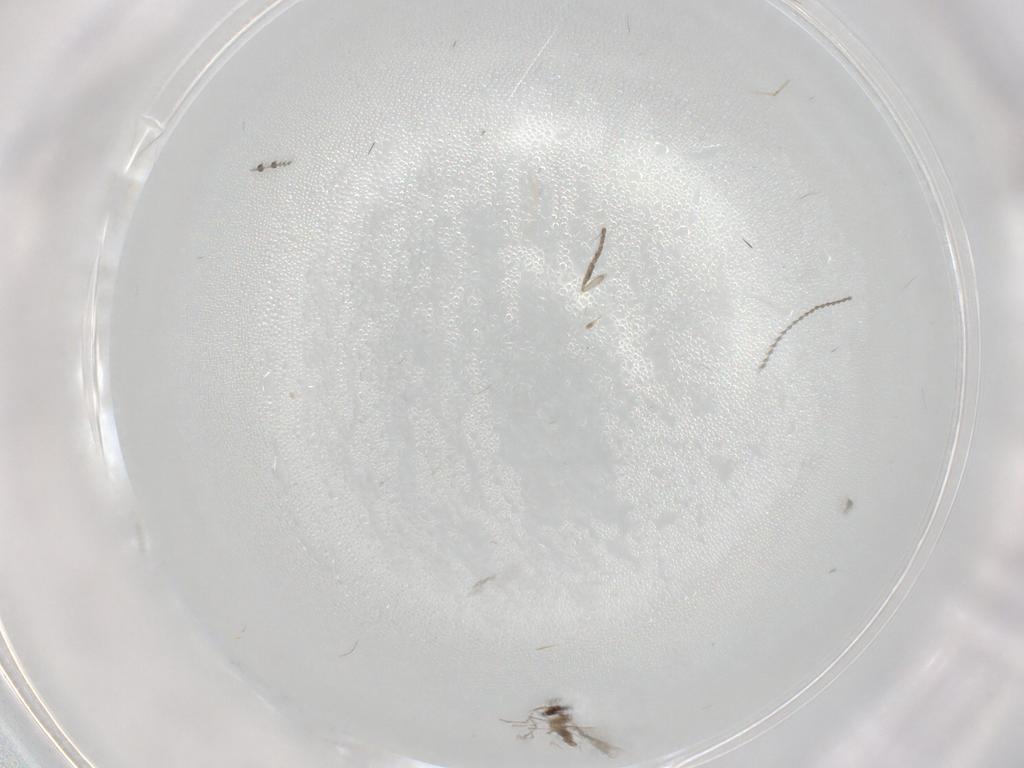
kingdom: Animalia
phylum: Arthropoda
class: Insecta
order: Diptera
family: Cecidomyiidae
